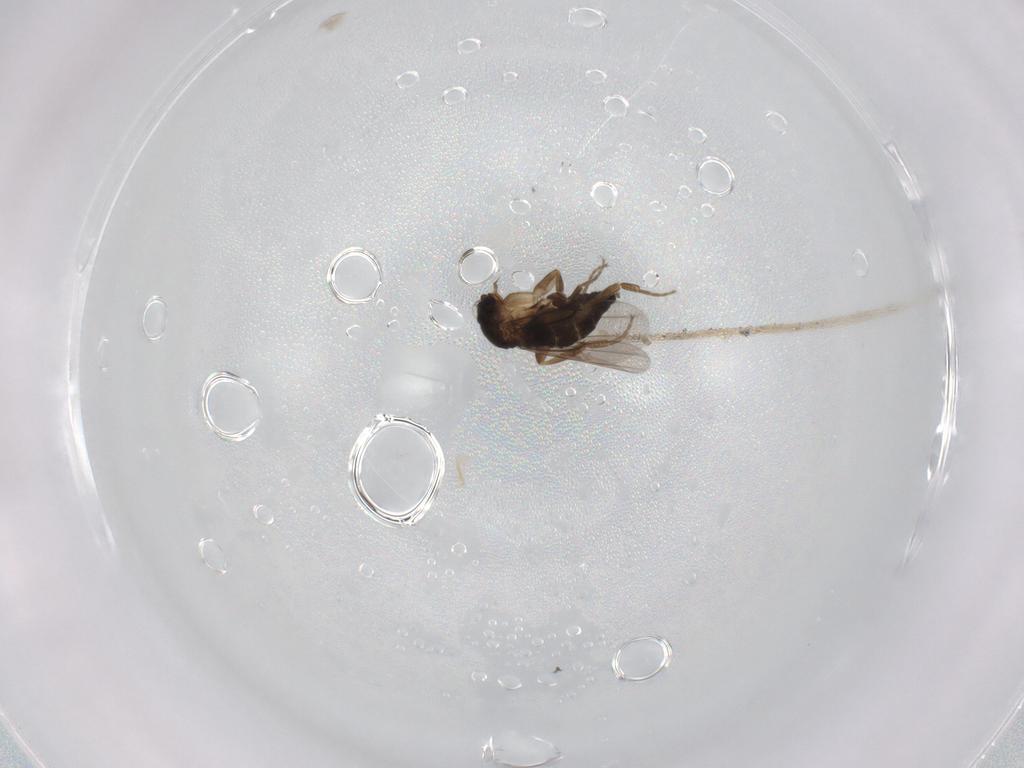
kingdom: Animalia
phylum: Arthropoda
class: Insecta
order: Diptera
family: Phoridae
